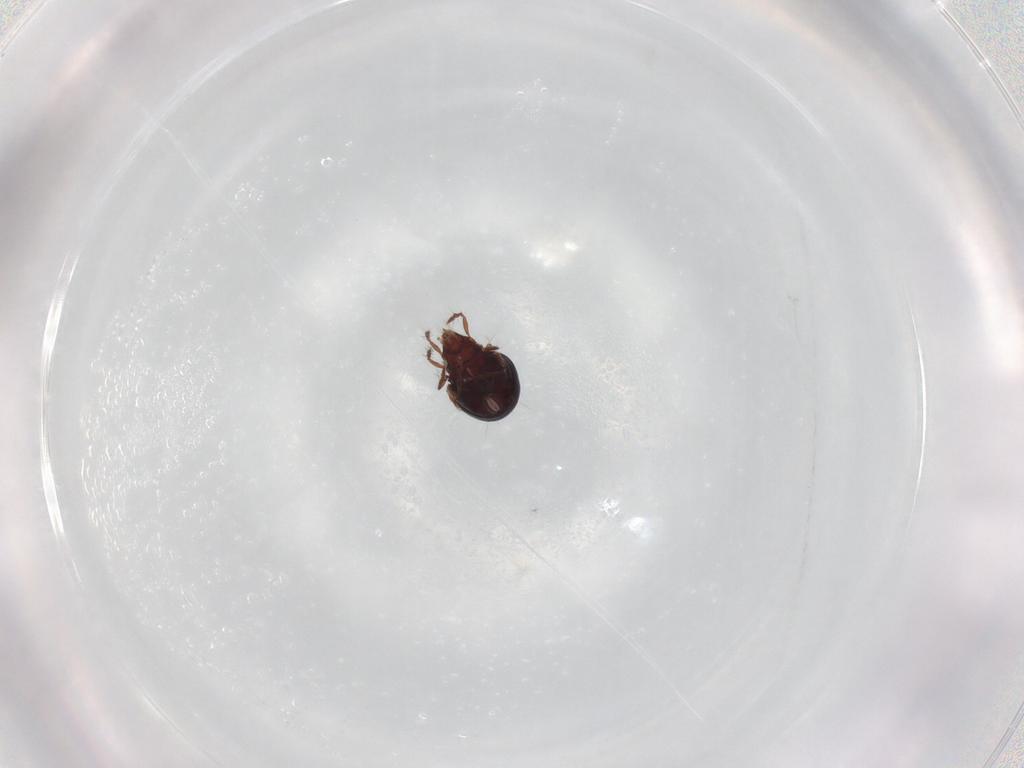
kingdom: Animalia
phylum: Arthropoda
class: Arachnida
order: Sarcoptiformes
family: Ceratoppiidae
